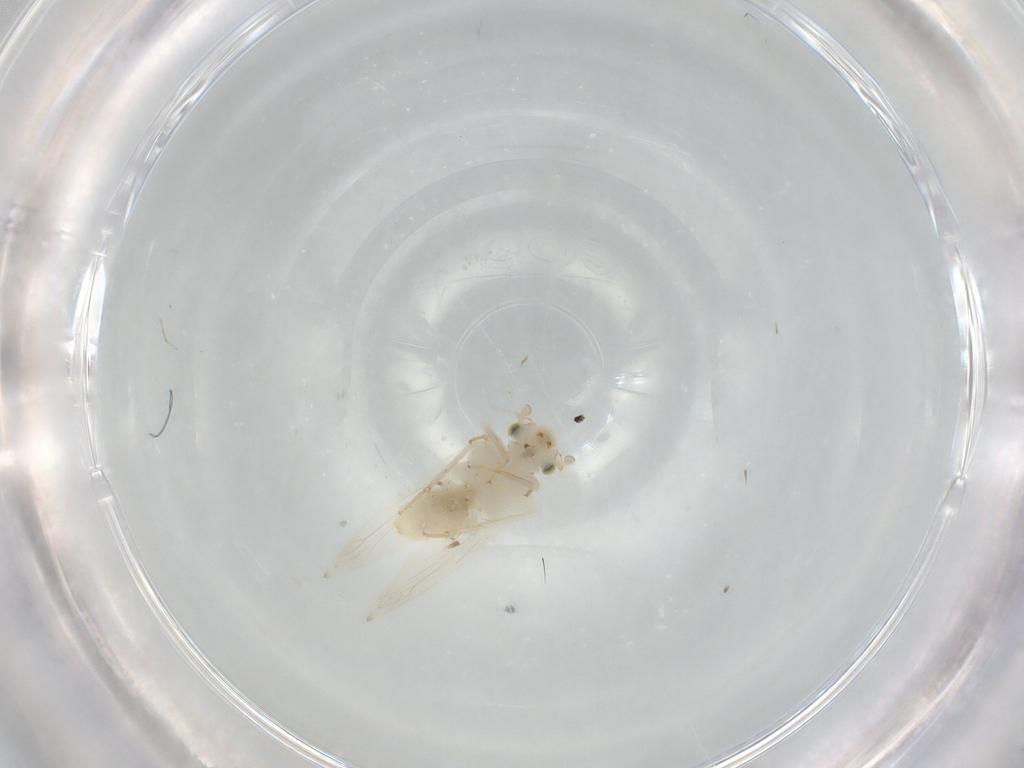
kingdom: Animalia
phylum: Arthropoda
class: Insecta
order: Psocodea
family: Lepidopsocidae
